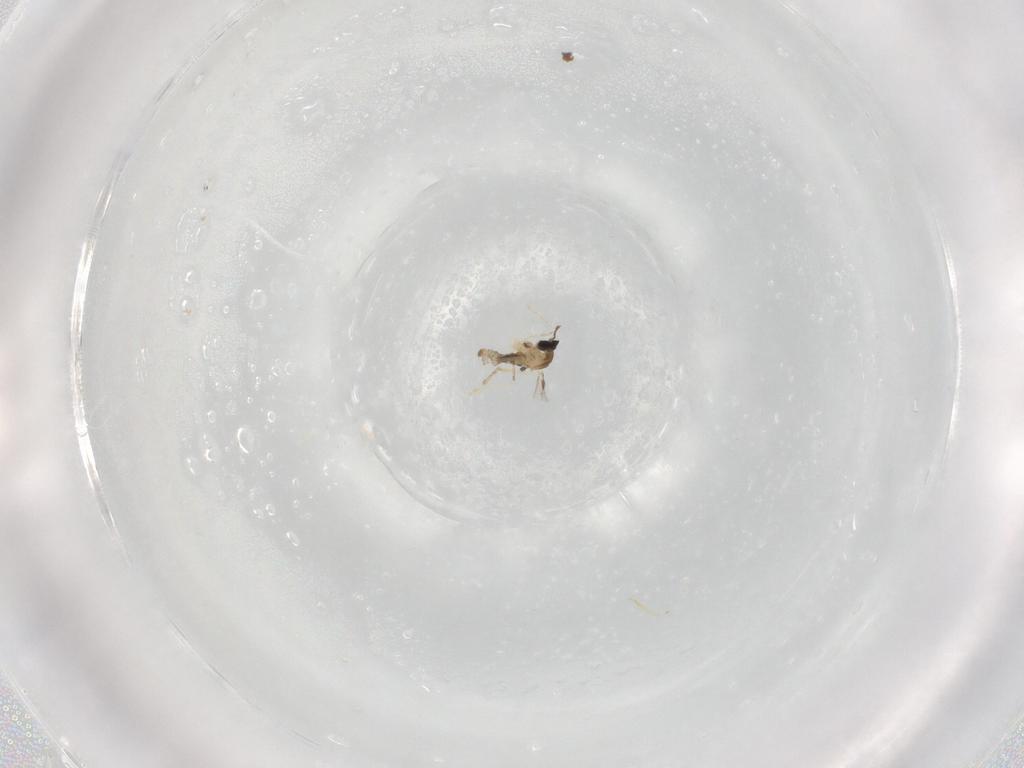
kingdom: Animalia
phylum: Arthropoda
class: Insecta
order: Diptera
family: Cecidomyiidae
